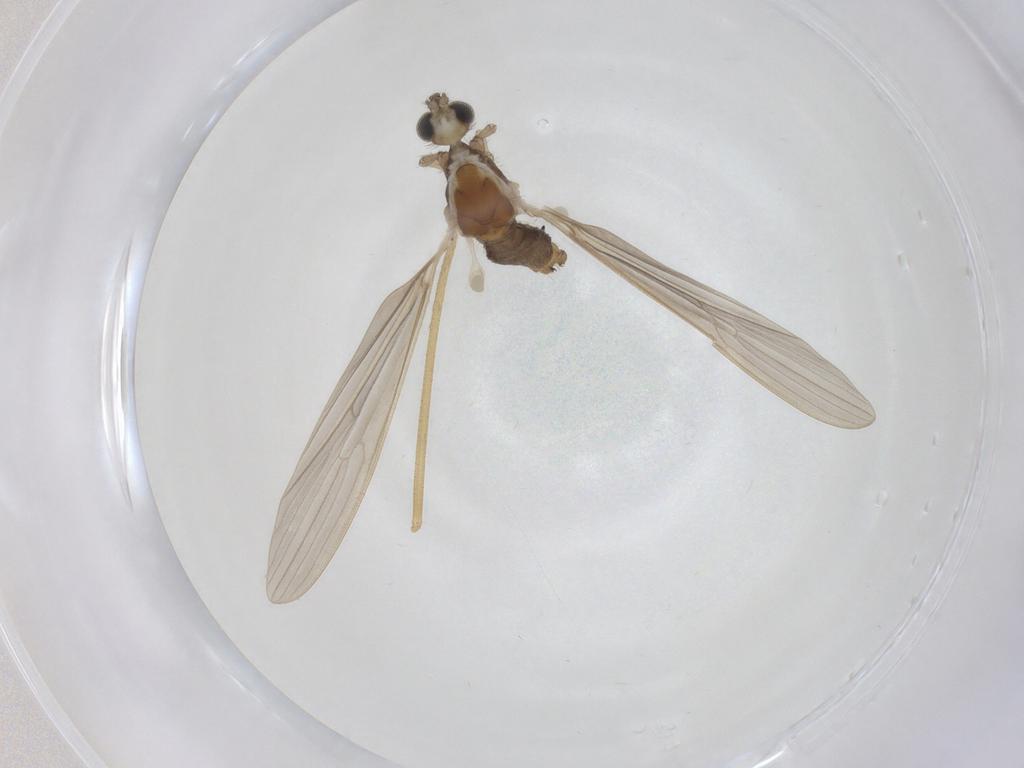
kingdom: Animalia
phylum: Arthropoda
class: Insecta
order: Diptera
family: Limoniidae
